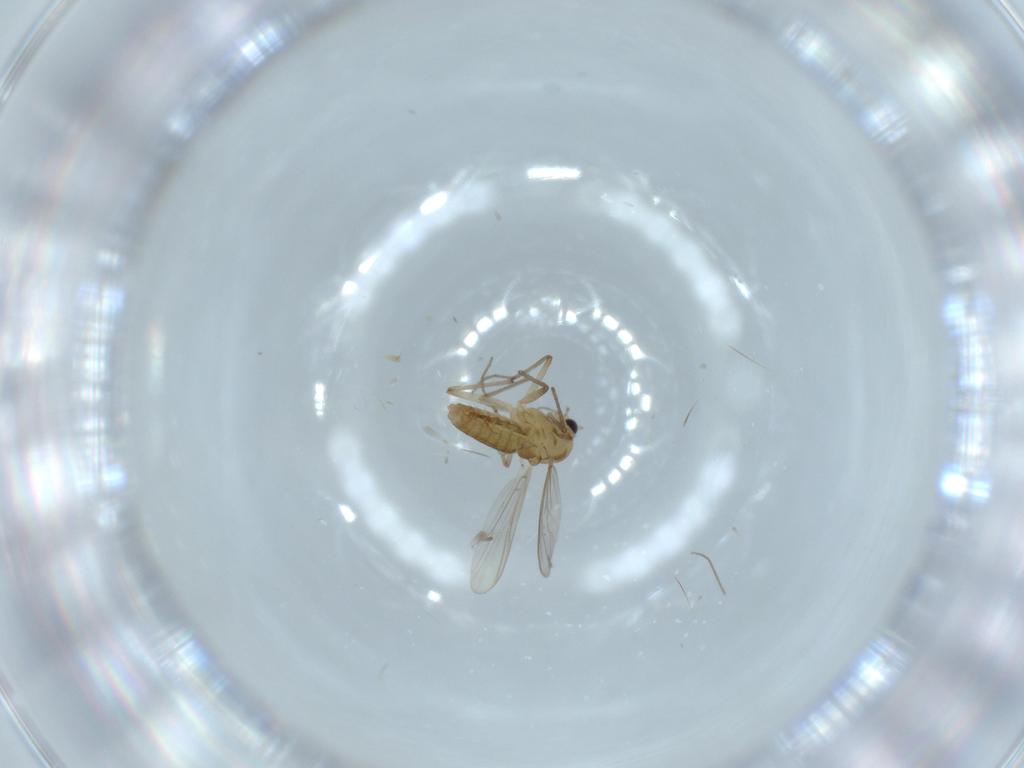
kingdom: Animalia
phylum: Arthropoda
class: Insecta
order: Diptera
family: Chironomidae
